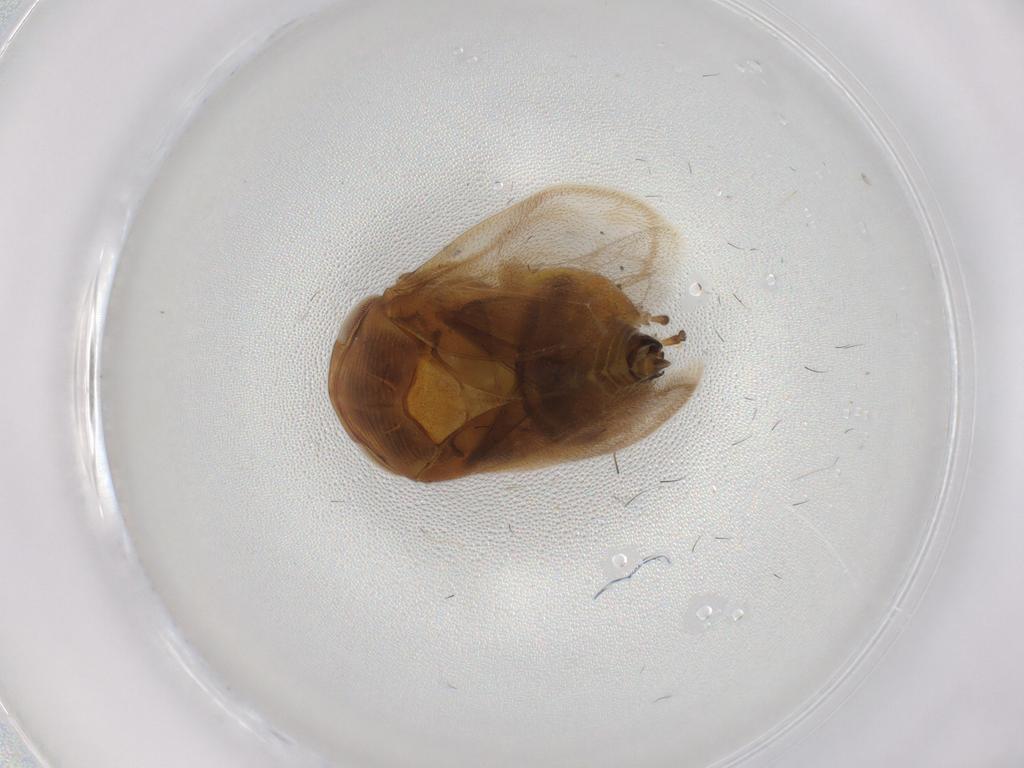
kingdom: Animalia
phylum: Arthropoda
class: Insecta
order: Hemiptera
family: Clastopteridae
